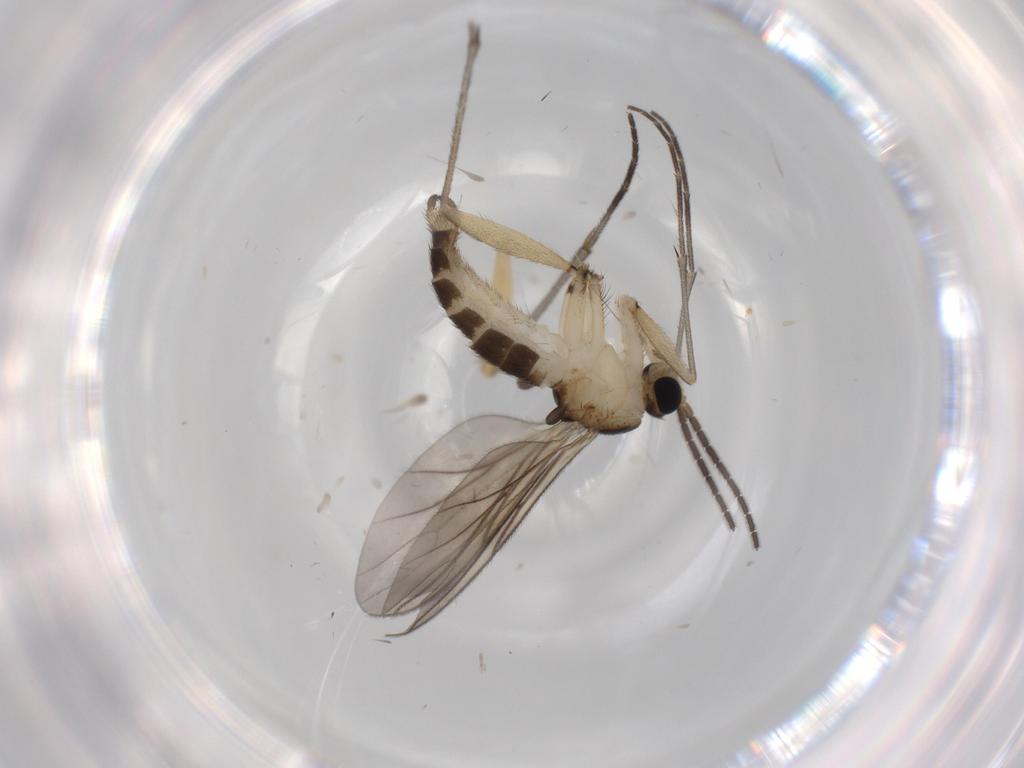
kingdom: Animalia
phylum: Arthropoda
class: Insecta
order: Diptera
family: Sciaridae
